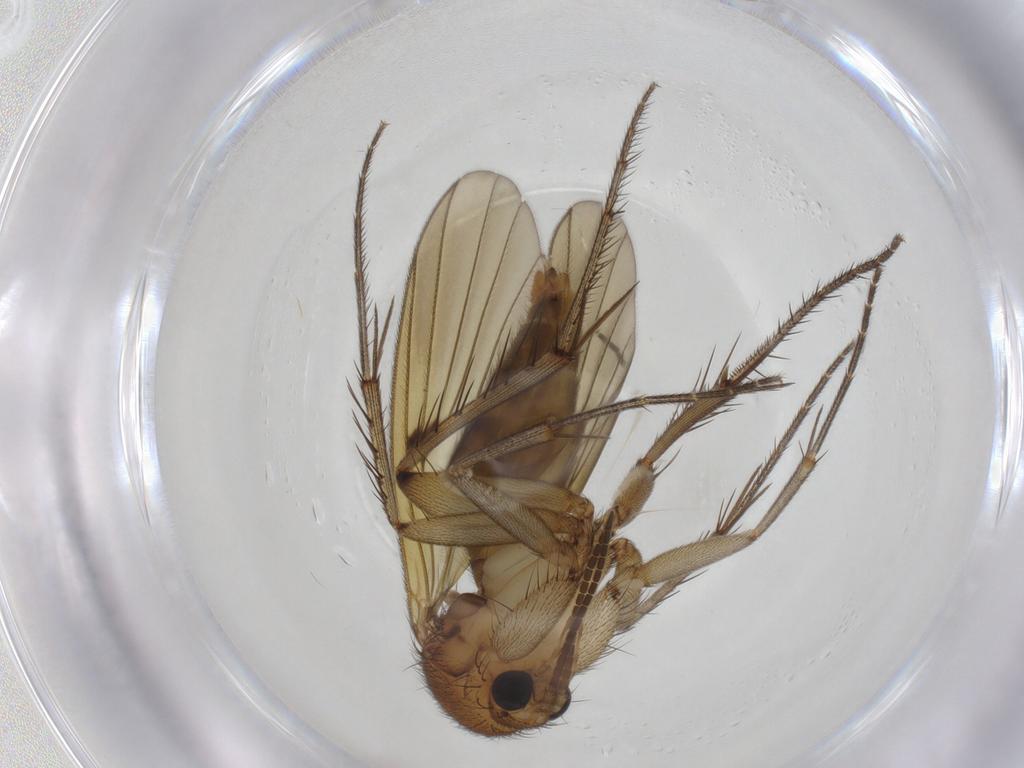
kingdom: Animalia
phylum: Arthropoda
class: Insecta
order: Diptera
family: Mycetophilidae
